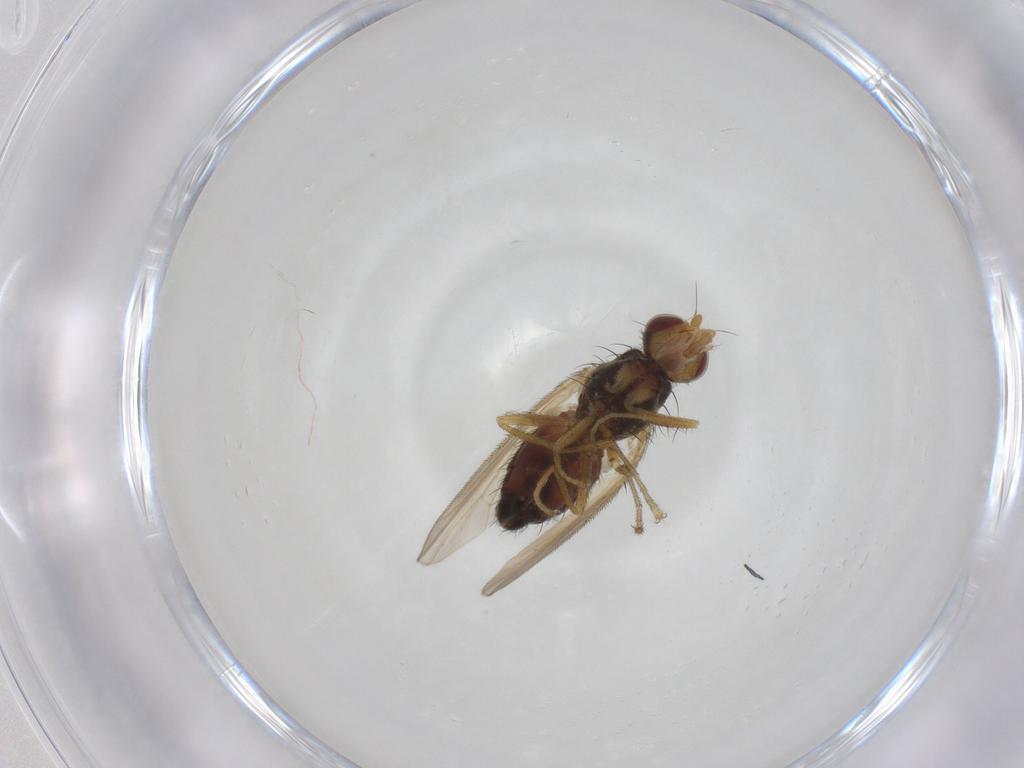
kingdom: Animalia
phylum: Arthropoda
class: Insecta
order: Diptera
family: Heleomyzidae
